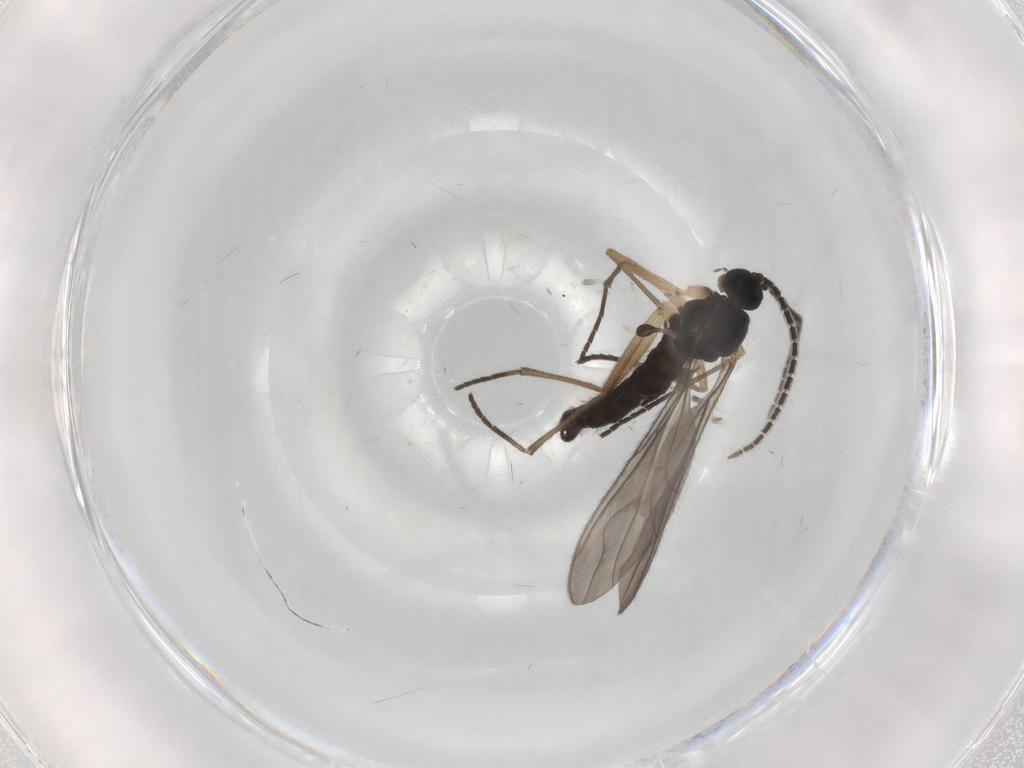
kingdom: Animalia
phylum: Arthropoda
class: Insecta
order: Diptera
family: Sciaridae
